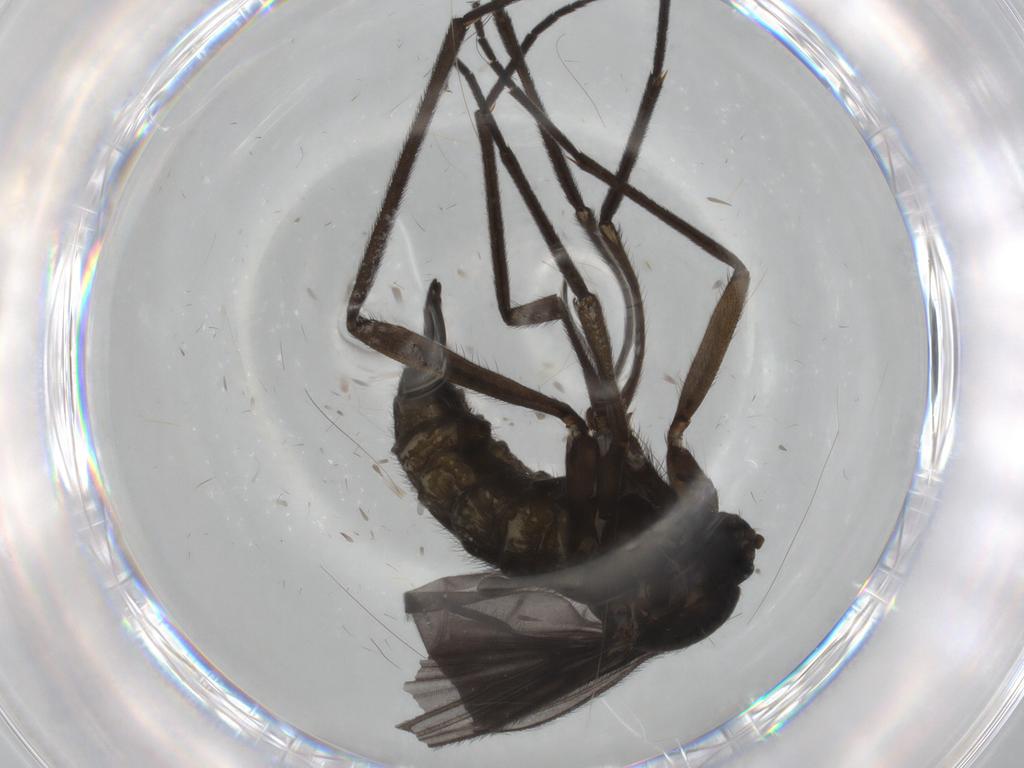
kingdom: Animalia
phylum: Arthropoda
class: Insecta
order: Diptera
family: Sciaridae
